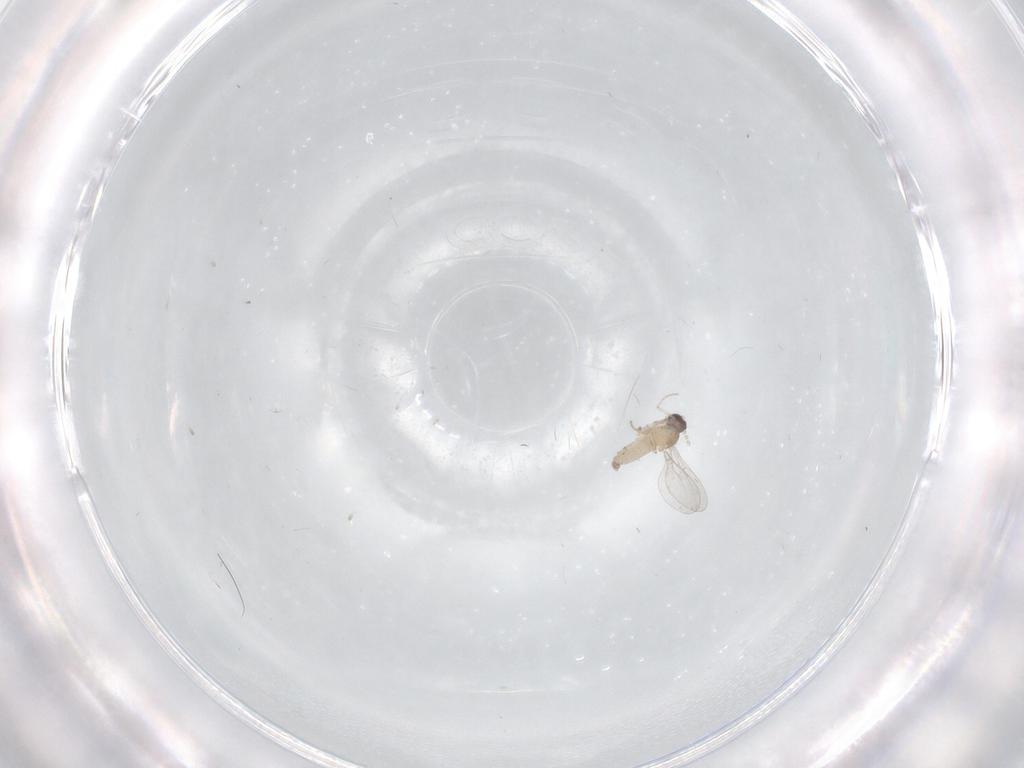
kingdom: Animalia
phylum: Arthropoda
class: Insecta
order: Diptera
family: Cecidomyiidae
